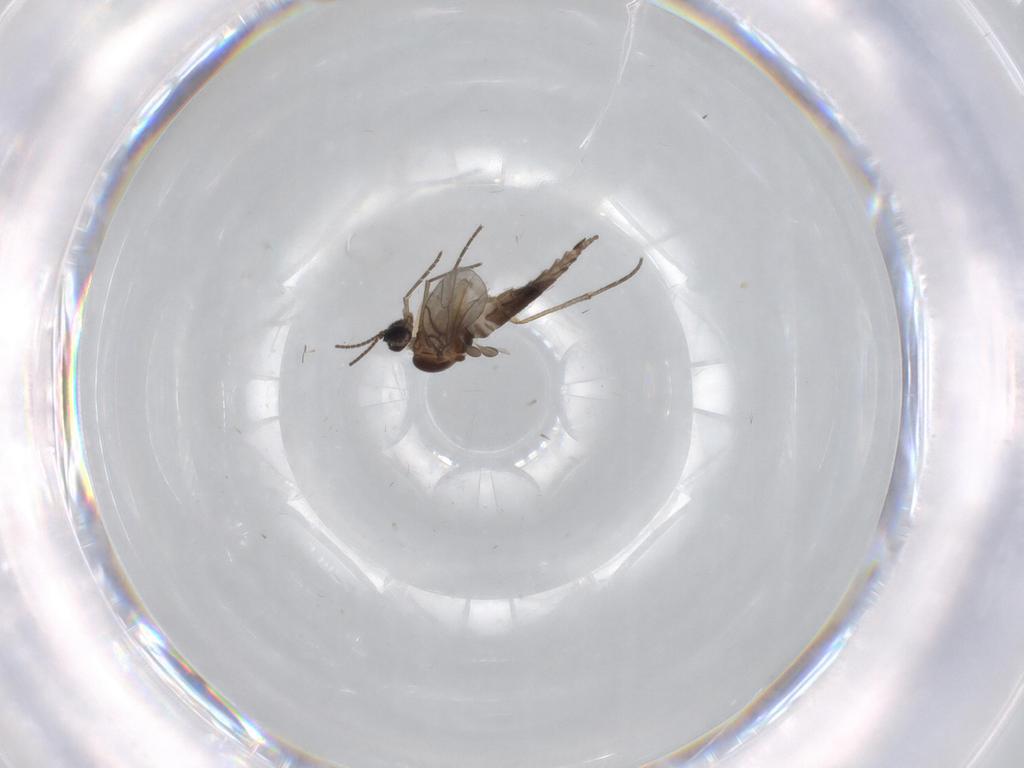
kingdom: Animalia
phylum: Arthropoda
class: Insecta
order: Diptera
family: Sciaridae
